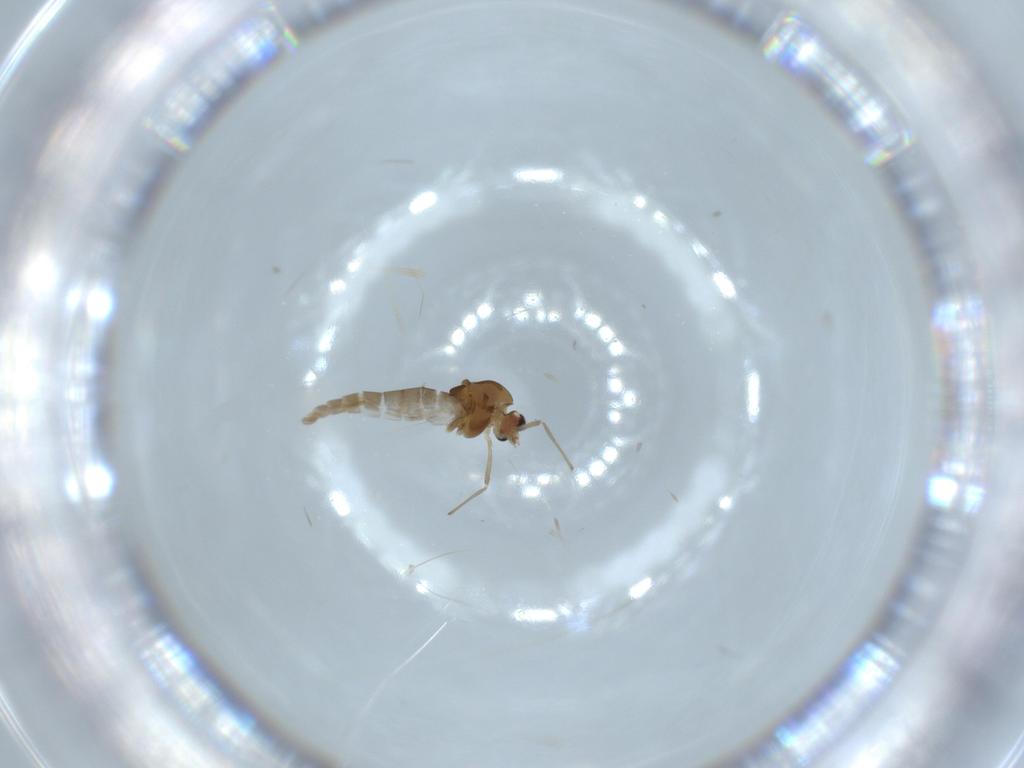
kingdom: Animalia
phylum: Arthropoda
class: Insecta
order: Diptera
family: Chironomidae
